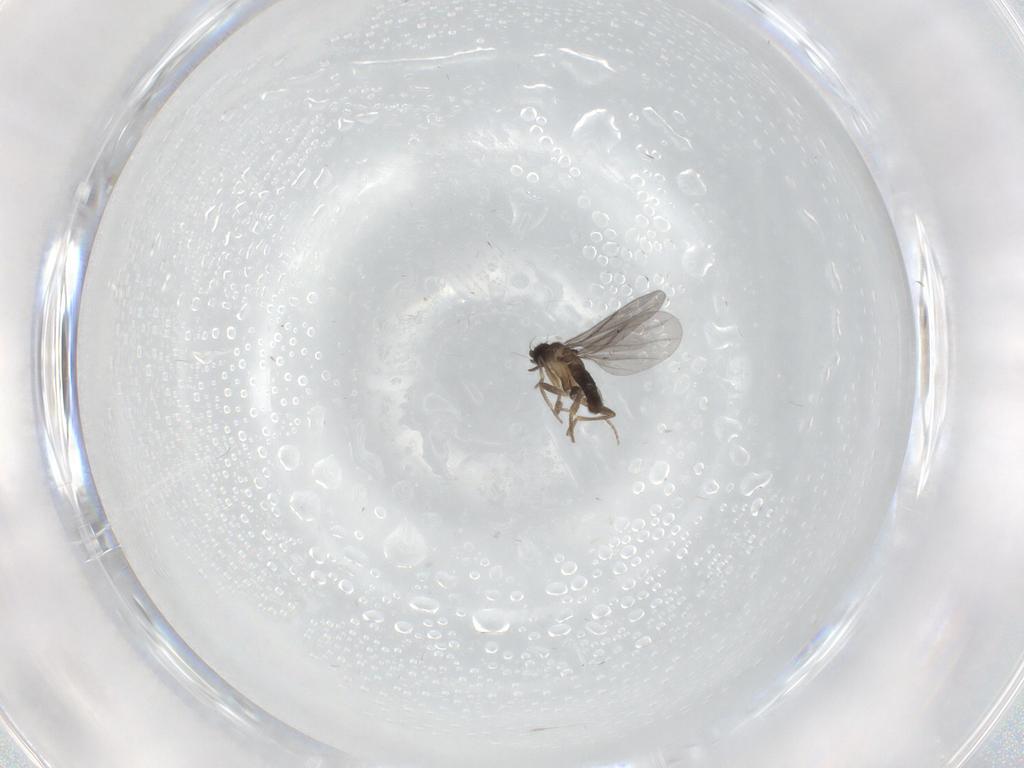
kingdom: Animalia
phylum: Arthropoda
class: Insecta
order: Diptera
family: Phoridae
